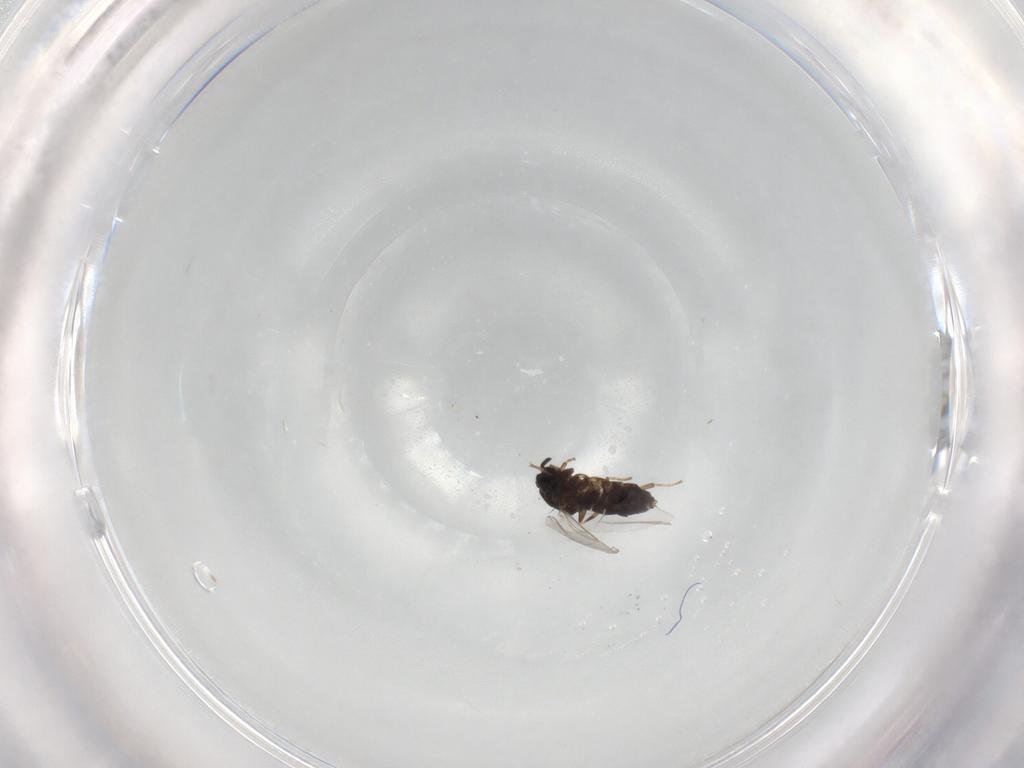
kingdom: Animalia
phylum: Arthropoda
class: Insecta
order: Diptera
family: Scatopsidae
